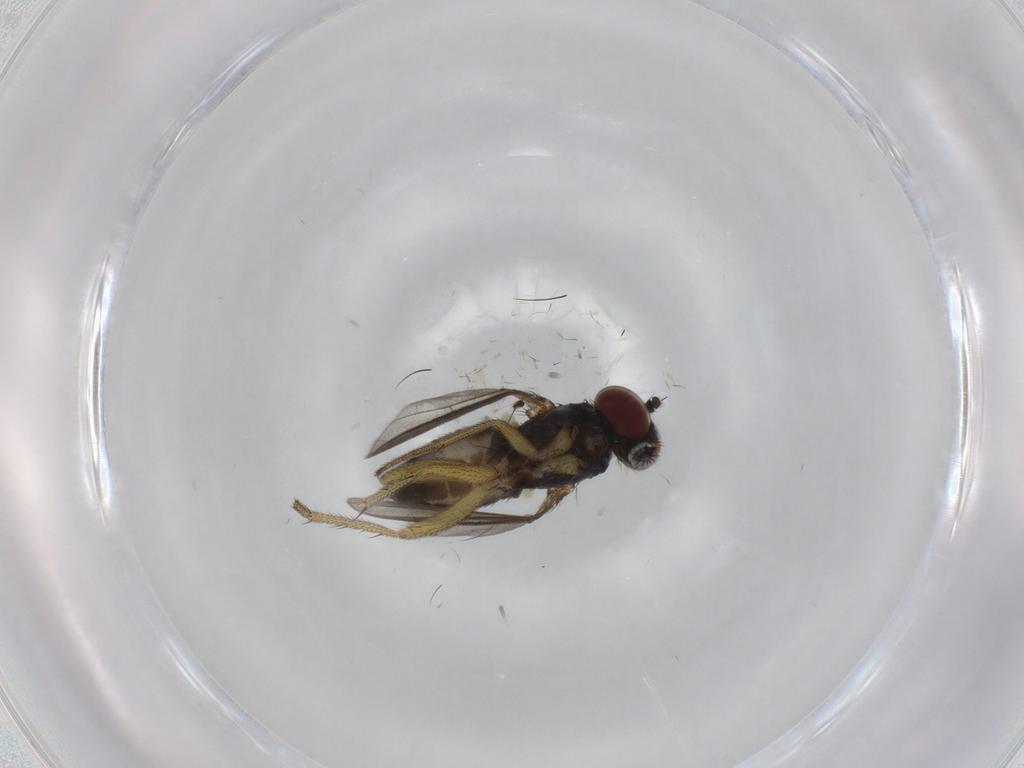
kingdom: Animalia
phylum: Arthropoda
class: Insecta
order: Diptera
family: Dolichopodidae
